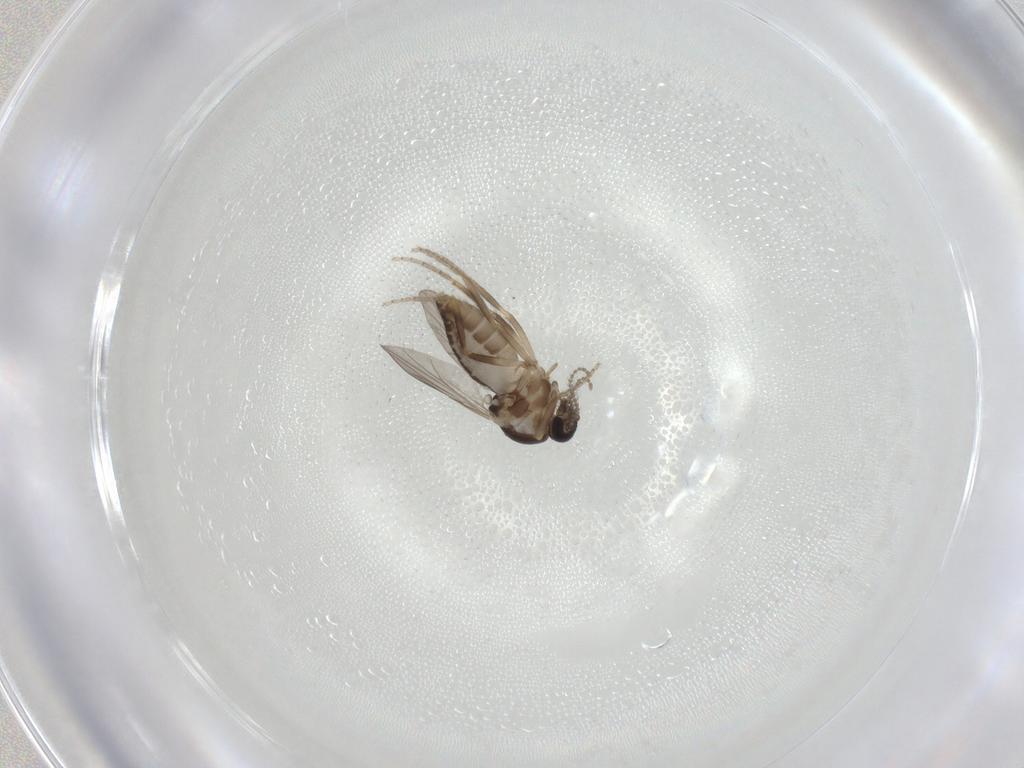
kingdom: Animalia
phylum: Arthropoda
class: Insecta
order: Diptera
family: Ceratopogonidae
